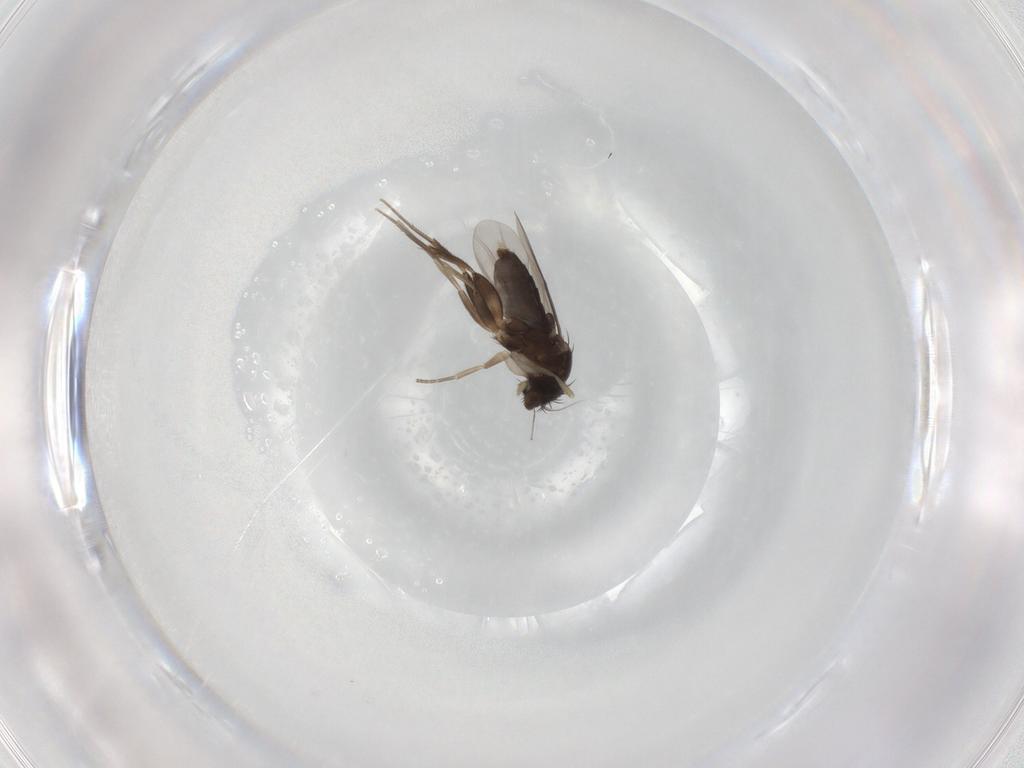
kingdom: Animalia
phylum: Arthropoda
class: Insecta
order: Diptera
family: Phoridae
